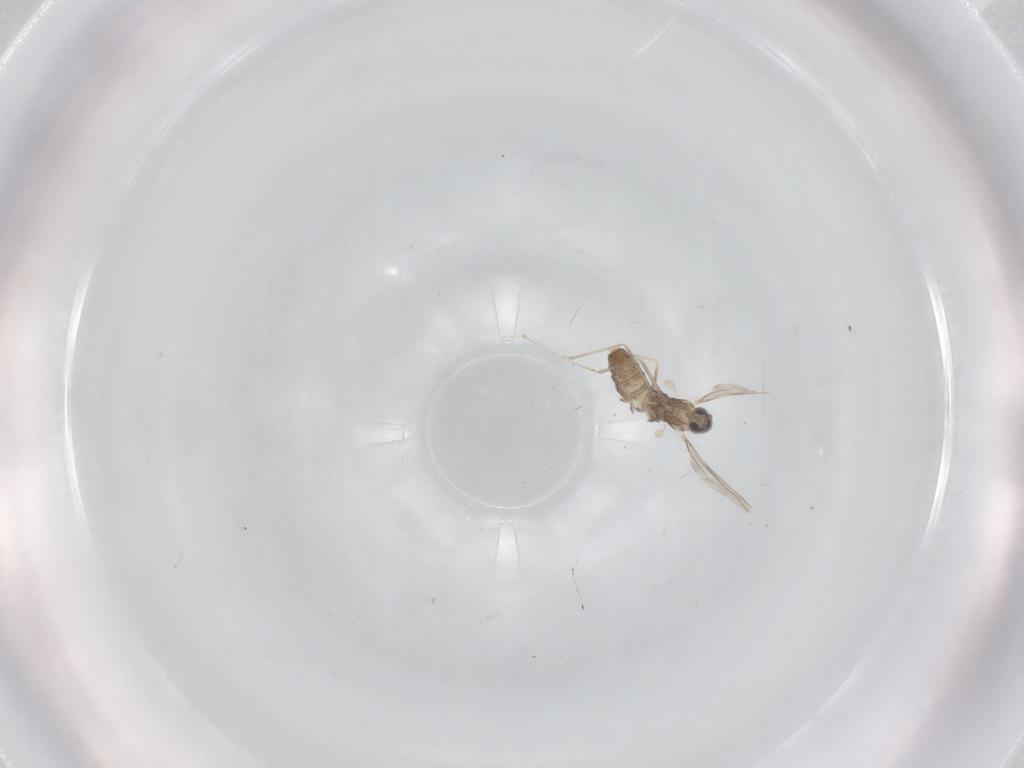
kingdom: Animalia
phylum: Arthropoda
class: Insecta
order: Diptera
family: Cecidomyiidae
